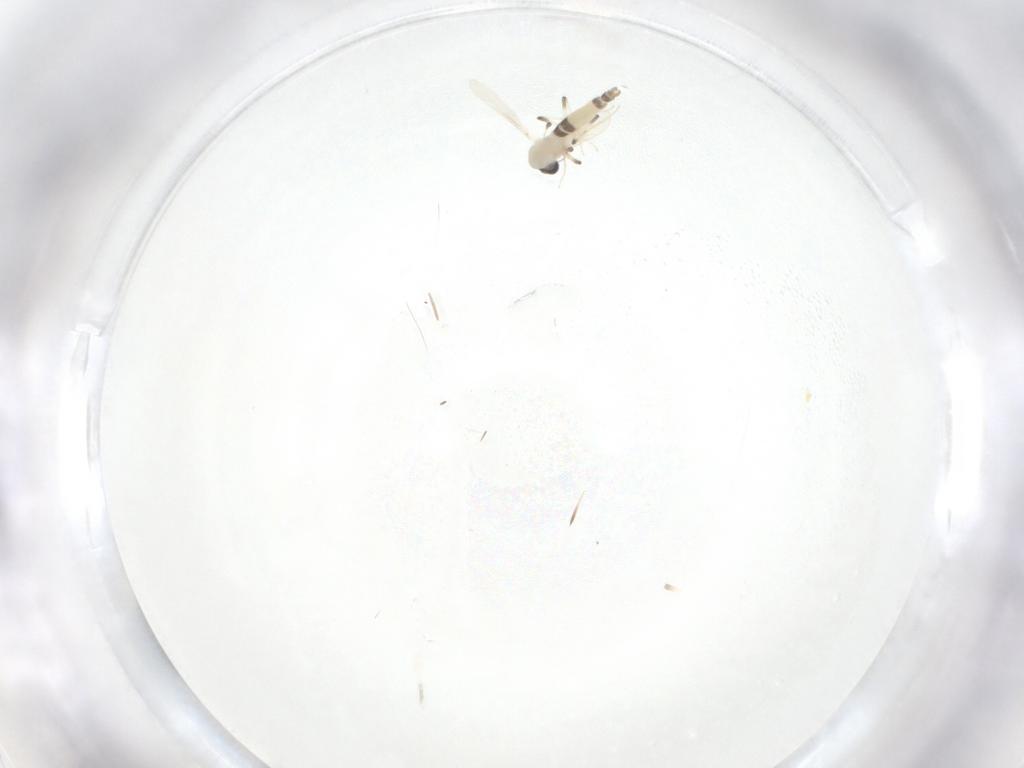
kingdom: Animalia
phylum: Arthropoda
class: Insecta
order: Diptera
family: Chironomidae
